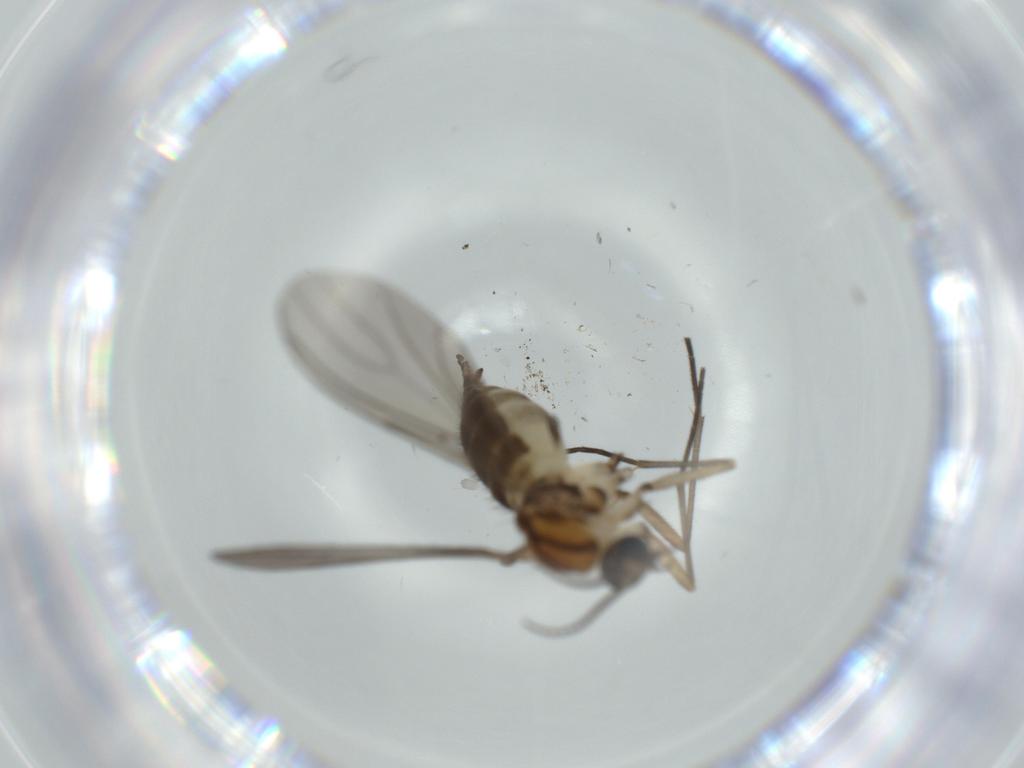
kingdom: Animalia
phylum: Arthropoda
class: Insecta
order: Diptera
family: Sciaridae
